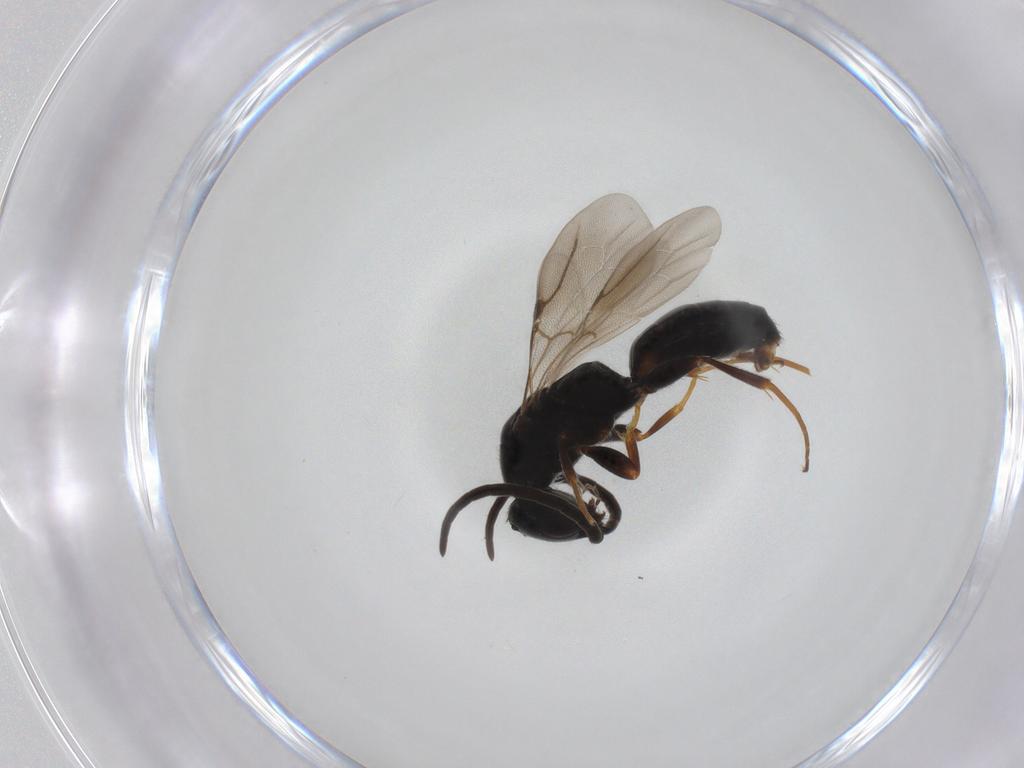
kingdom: Animalia
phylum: Arthropoda
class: Insecta
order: Hymenoptera
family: Bethylidae
